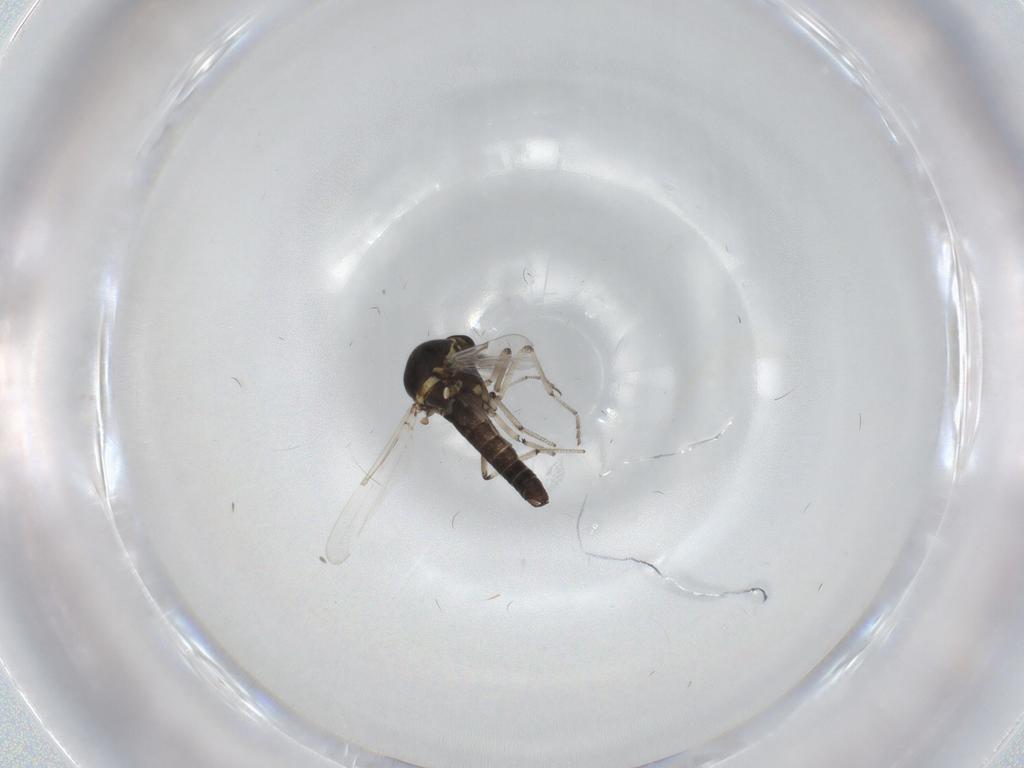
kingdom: Animalia
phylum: Arthropoda
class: Insecta
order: Diptera
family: Ceratopogonidae
